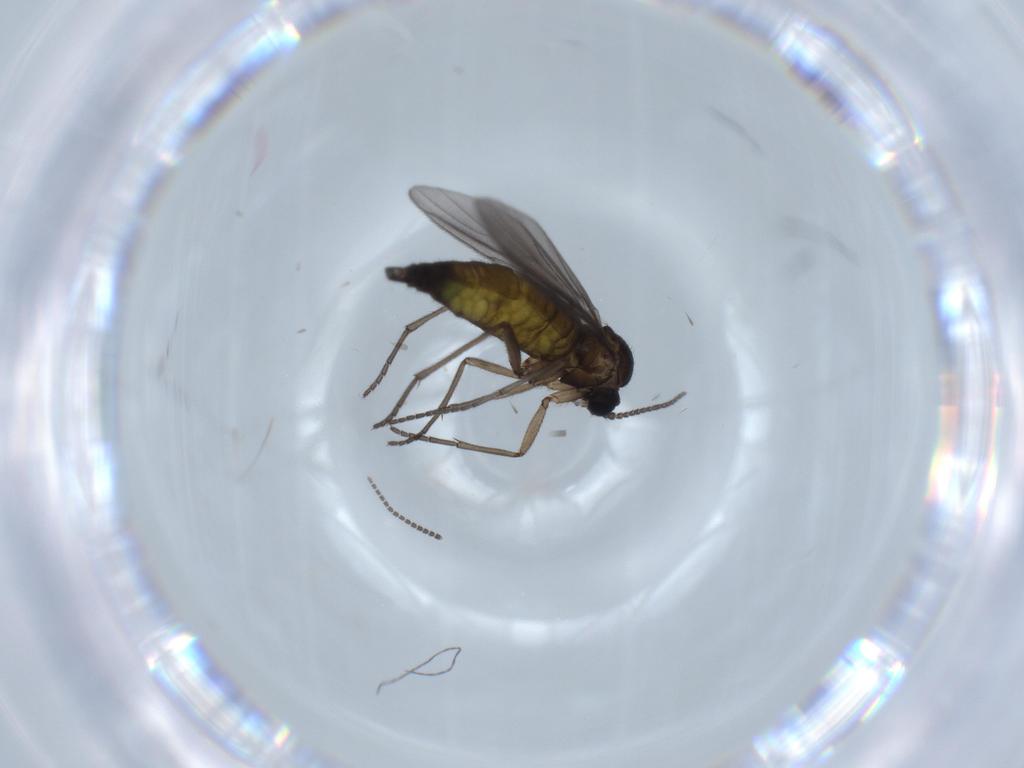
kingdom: Animalia
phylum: Arthropoda
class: Insecta
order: Diptera
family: Sciaridae
